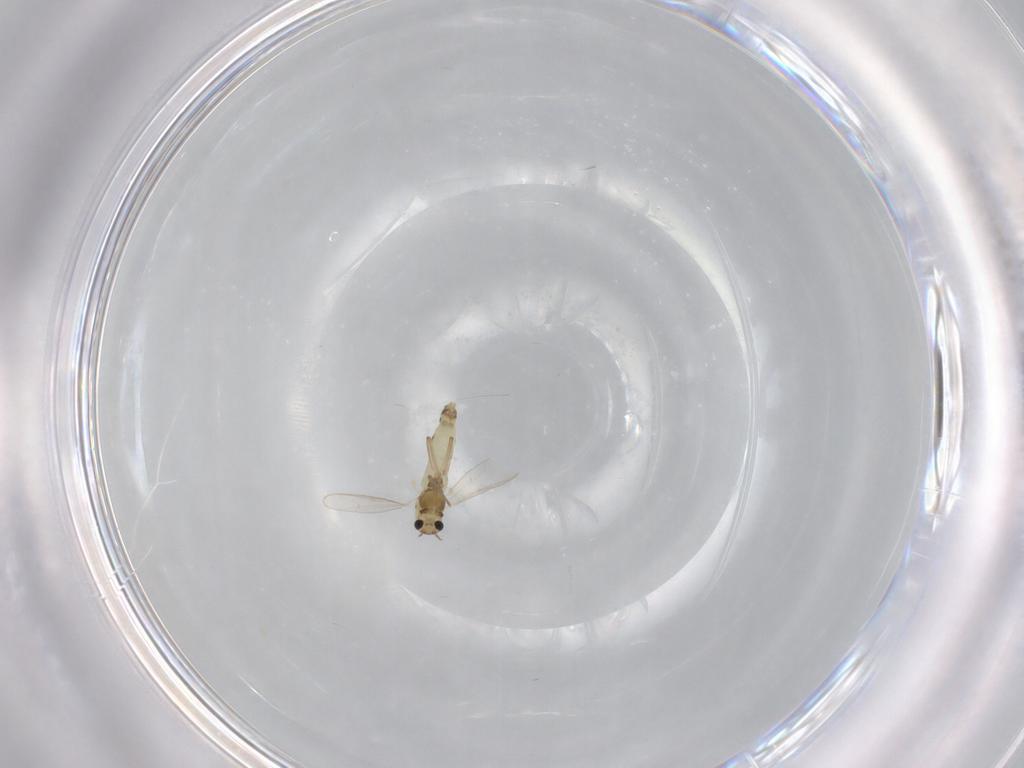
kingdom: Animalia
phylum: Arthropoda
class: Insecta
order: Diptera
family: Chironomidae
